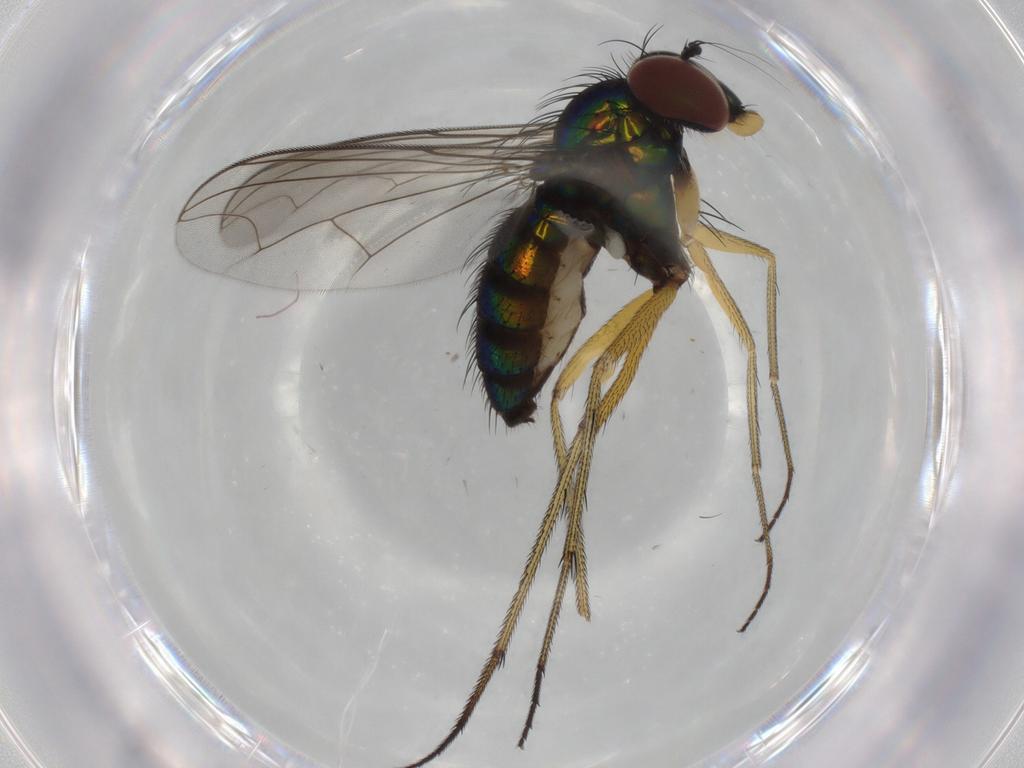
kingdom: Animalia
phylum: Arthropoda
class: Insecta
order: Diptera
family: Dolichopodidae
